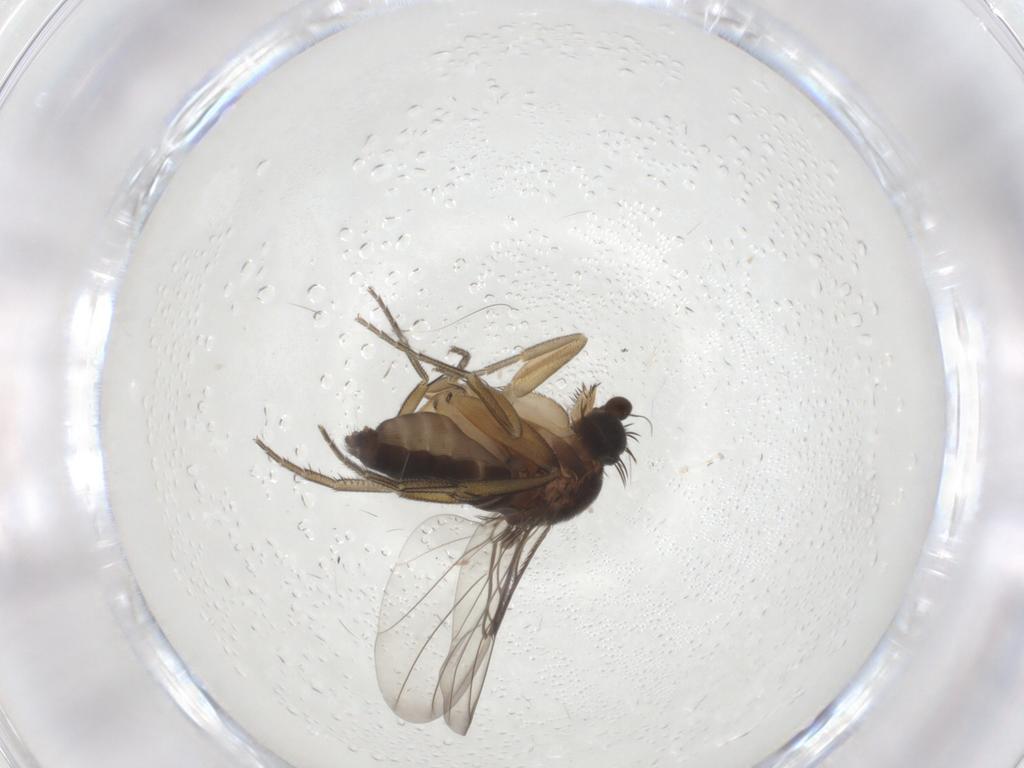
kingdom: Animalia
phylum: Arthropoda
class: Insecta
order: Diptera
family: Phoridae
